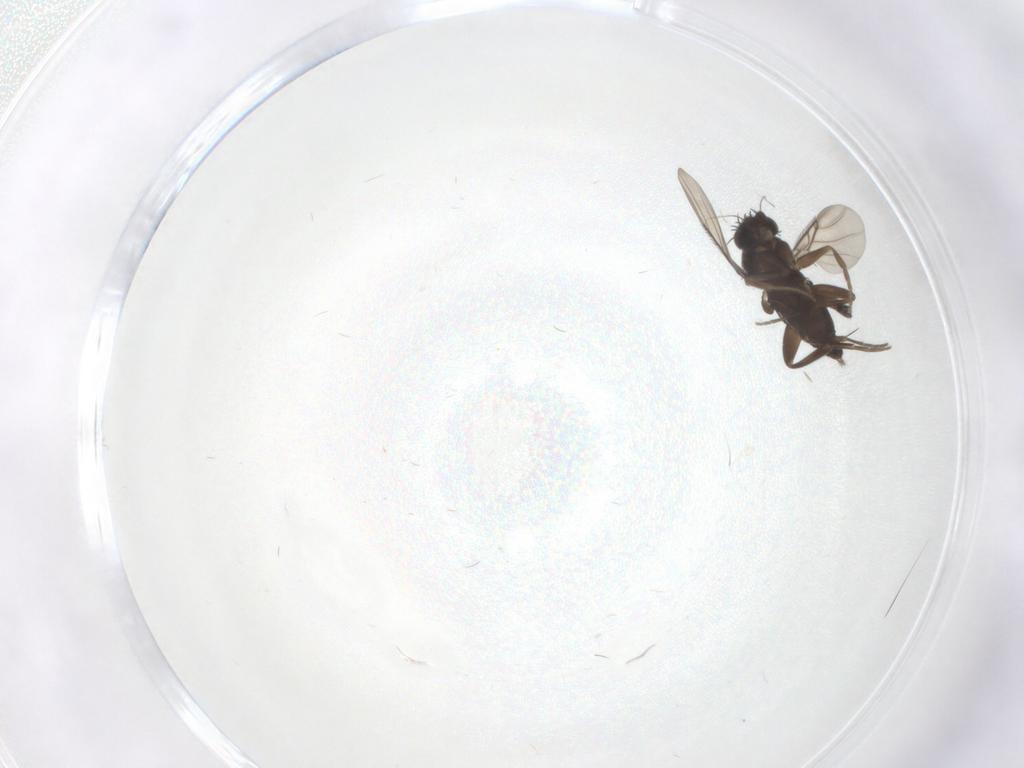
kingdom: Animalia
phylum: Arthropoda
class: Insecta
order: Diptera
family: Phoridae
